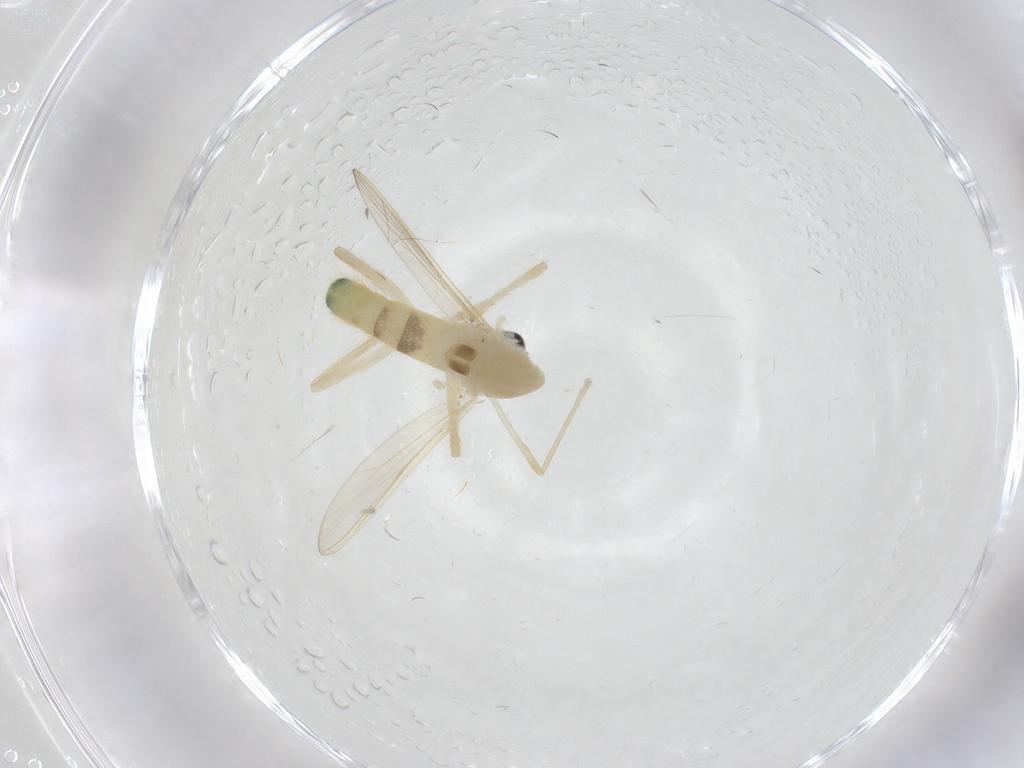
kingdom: Animalia
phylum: Arthropoda
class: Insecta
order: Diptera
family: Chironomidae
